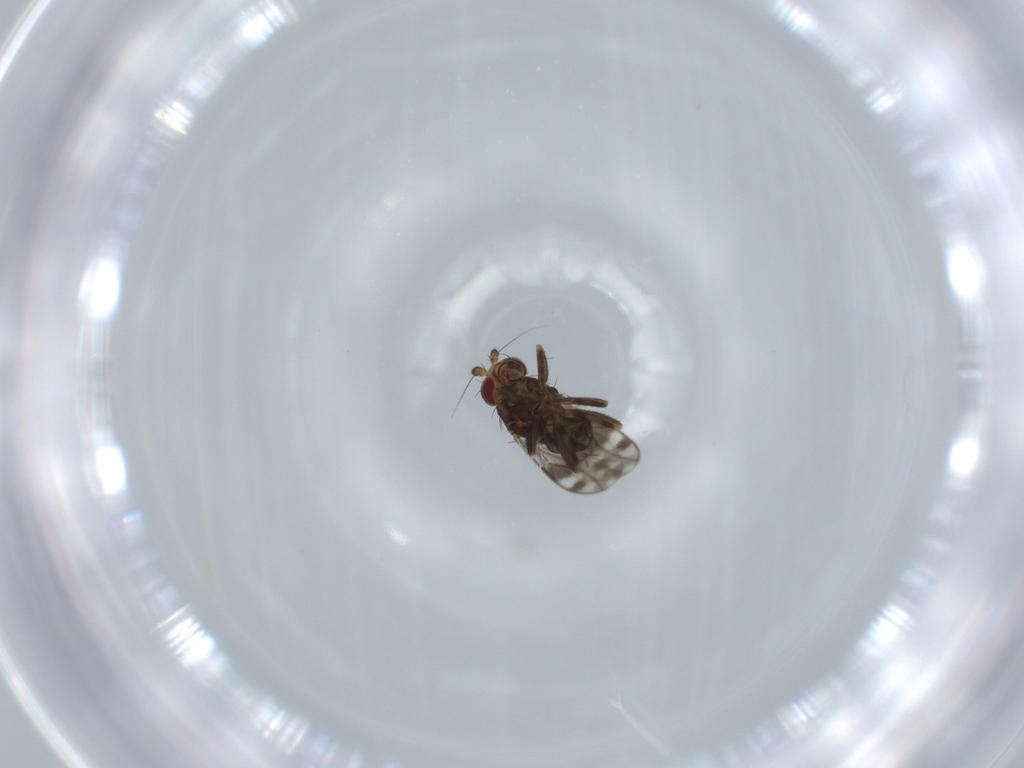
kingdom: Animalia
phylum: Arthropoda
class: Insecta
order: Diptera
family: Sphaeroceridae
